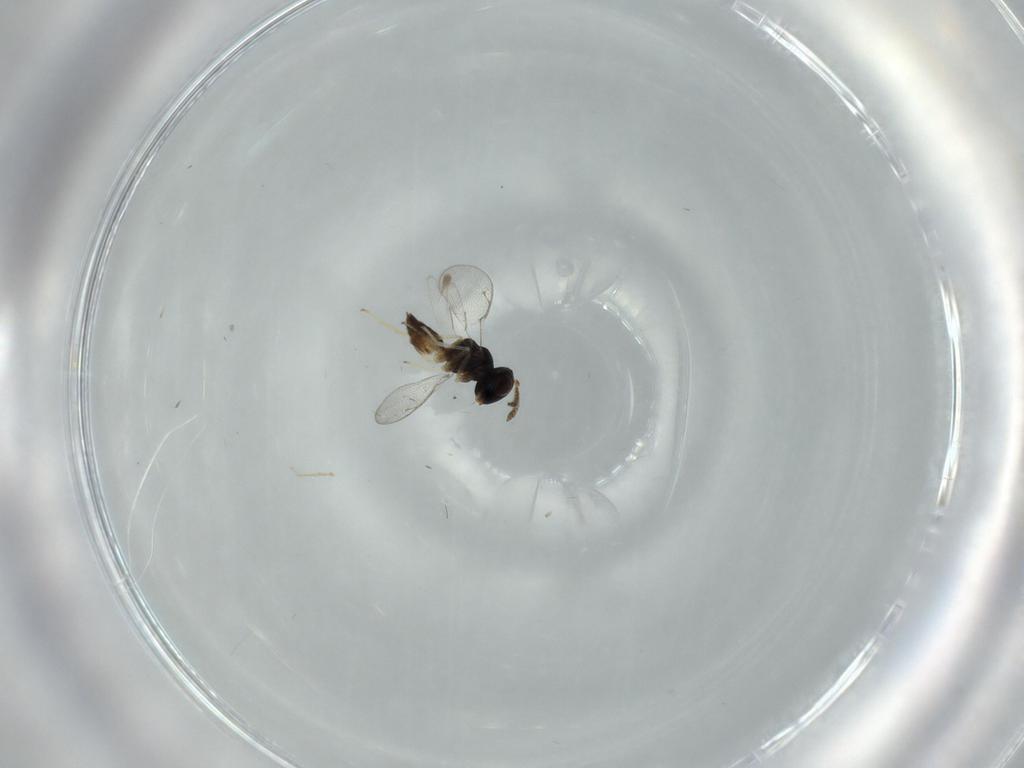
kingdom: Animalia
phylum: Arthropoda
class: Insecta
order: Hymenoptera
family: Pteromalidae
